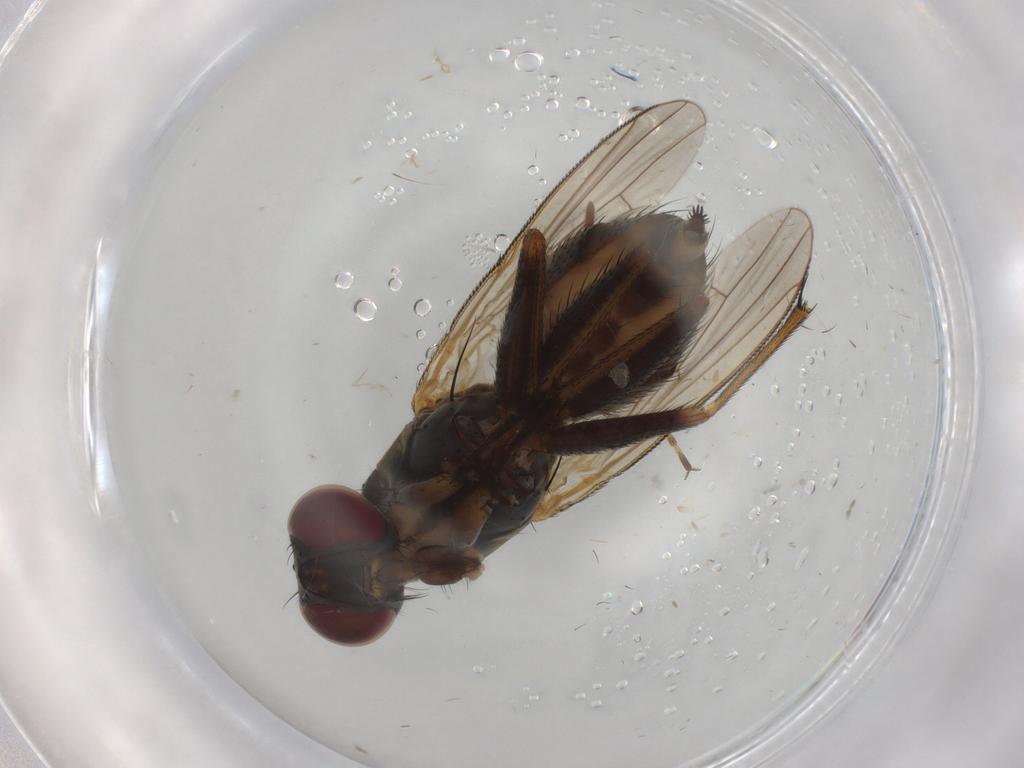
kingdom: Animalia
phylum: Arthropoda
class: Insecta
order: Diptera
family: Muscidae
